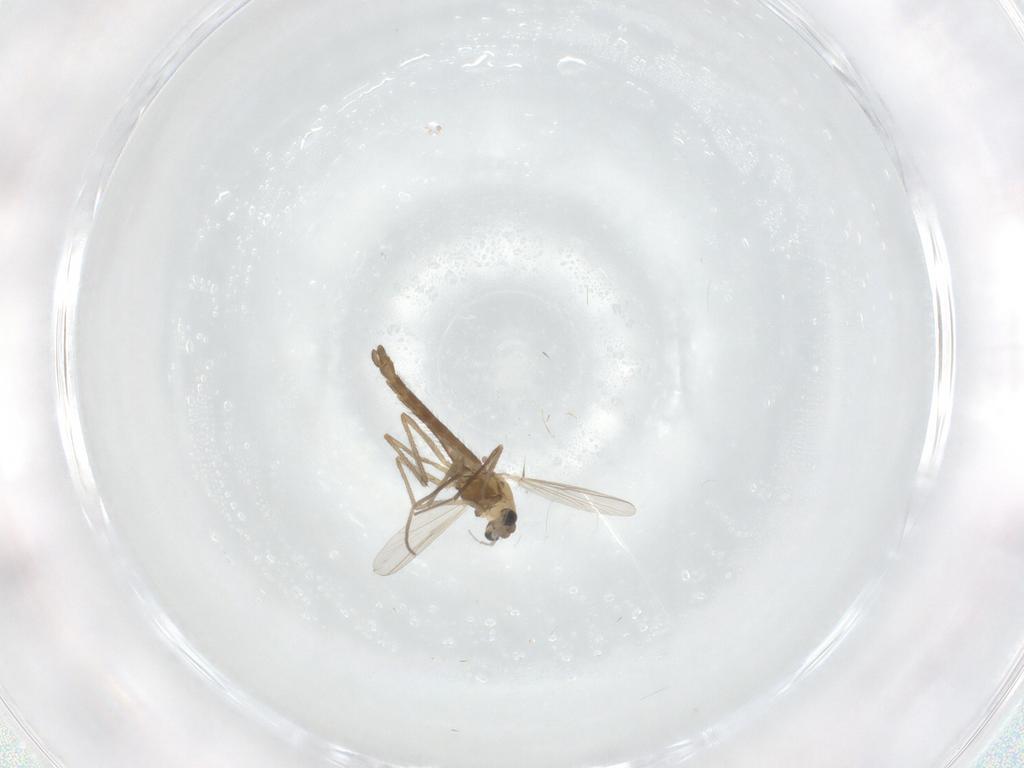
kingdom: Animalia
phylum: Arthropoda
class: Insecta
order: Diptera
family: Chironomidae
